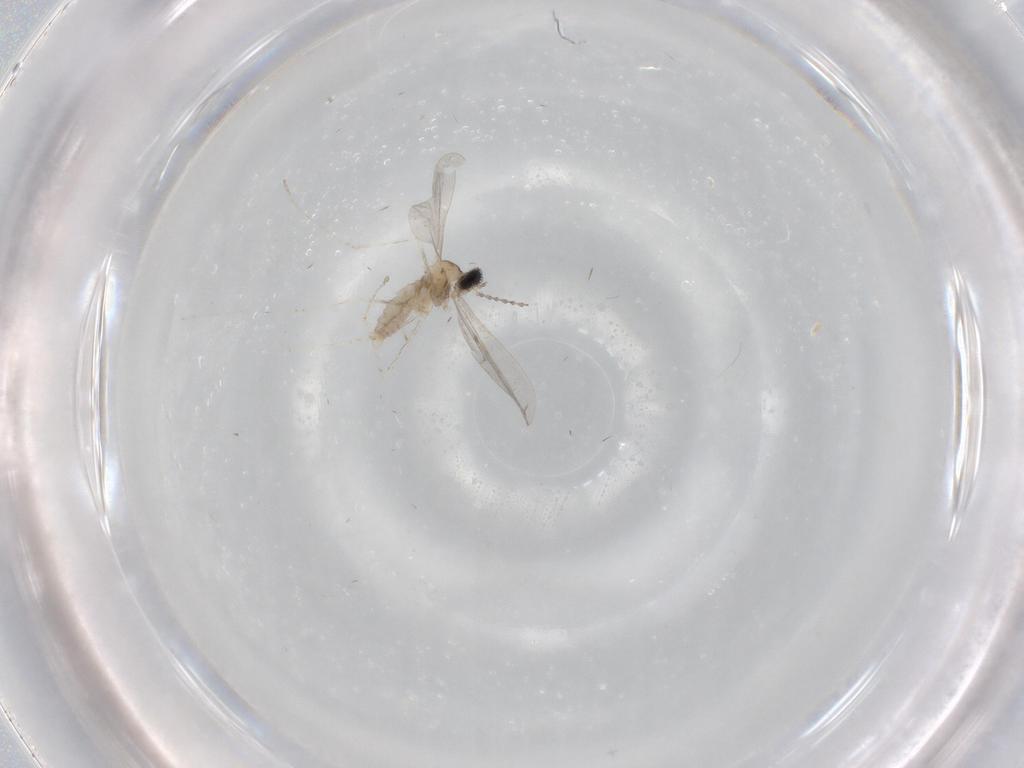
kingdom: Animalia
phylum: Arthropoda
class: Insecta
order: Diptera
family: Cecidomyiidae
